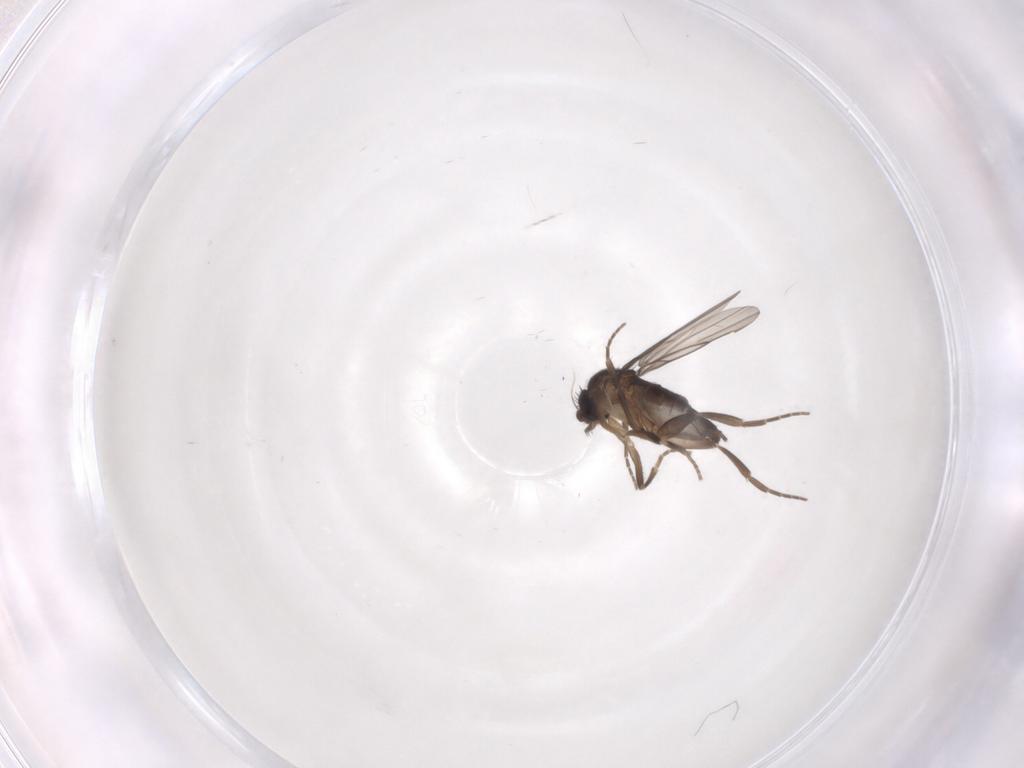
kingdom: Animalia
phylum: Arthropoda
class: Insecta
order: Diptera
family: Phoridae
